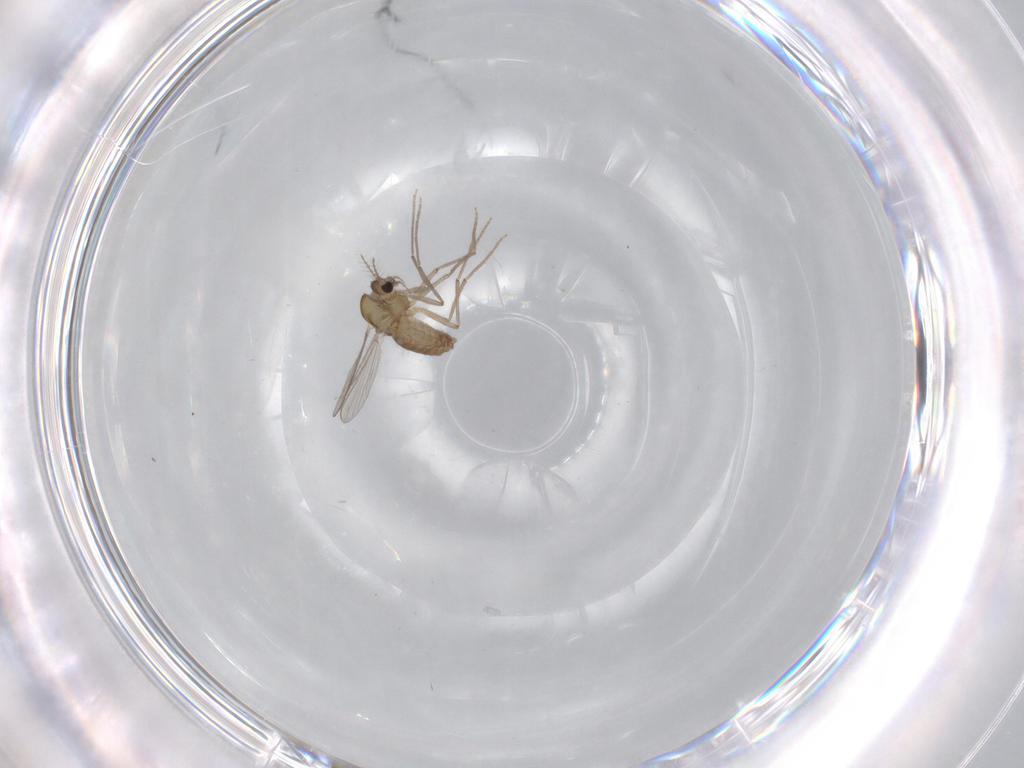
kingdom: Animalia
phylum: Arthropoda
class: Insecta
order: Diptera
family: Chironomidae
